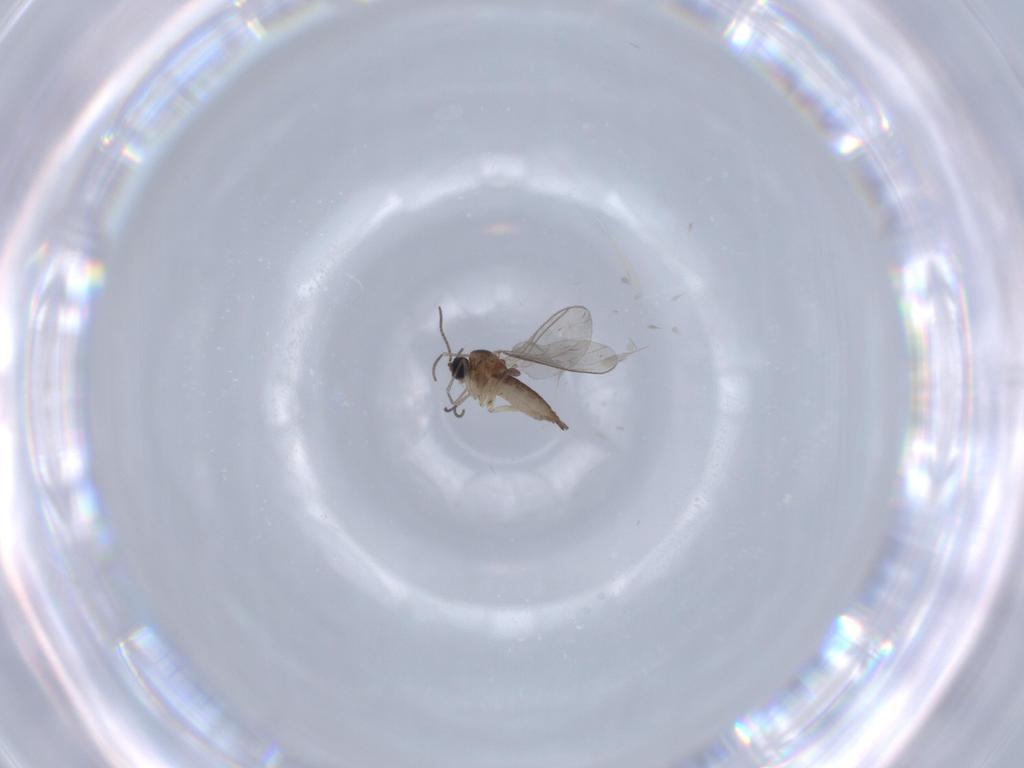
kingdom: Animalia
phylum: Arthropoda
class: Insecta
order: Diptera
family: Sciaridae
